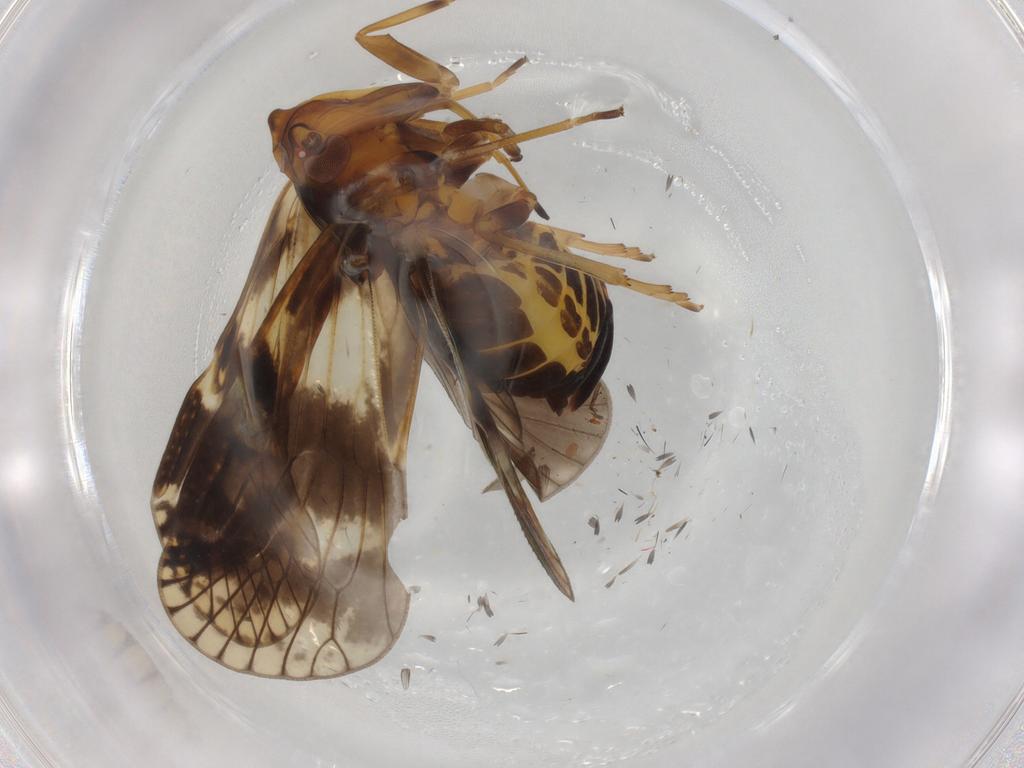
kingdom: Animalia
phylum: Arthropoda
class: Insecta
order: Hemiptera
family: Cixiidae
